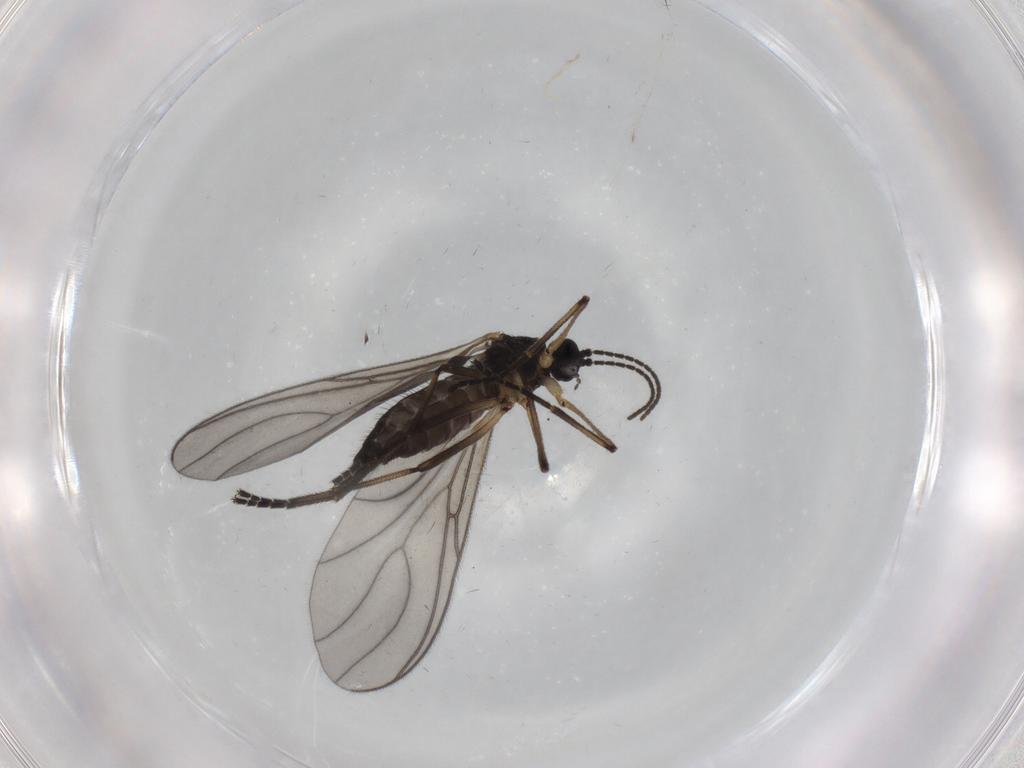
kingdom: Animalia
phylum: Arthropoda
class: Insecta
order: Diptera
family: Sciaridae
